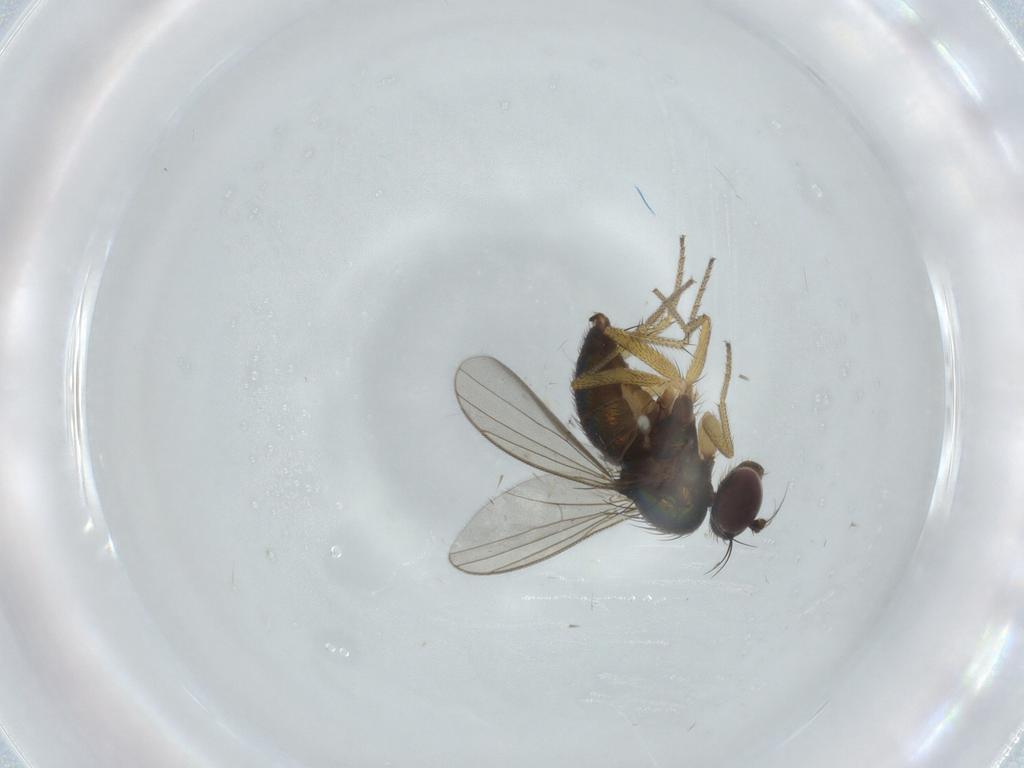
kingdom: Animalia
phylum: Arthropoda
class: Insecta
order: Diptera
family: Dolichopodidae
